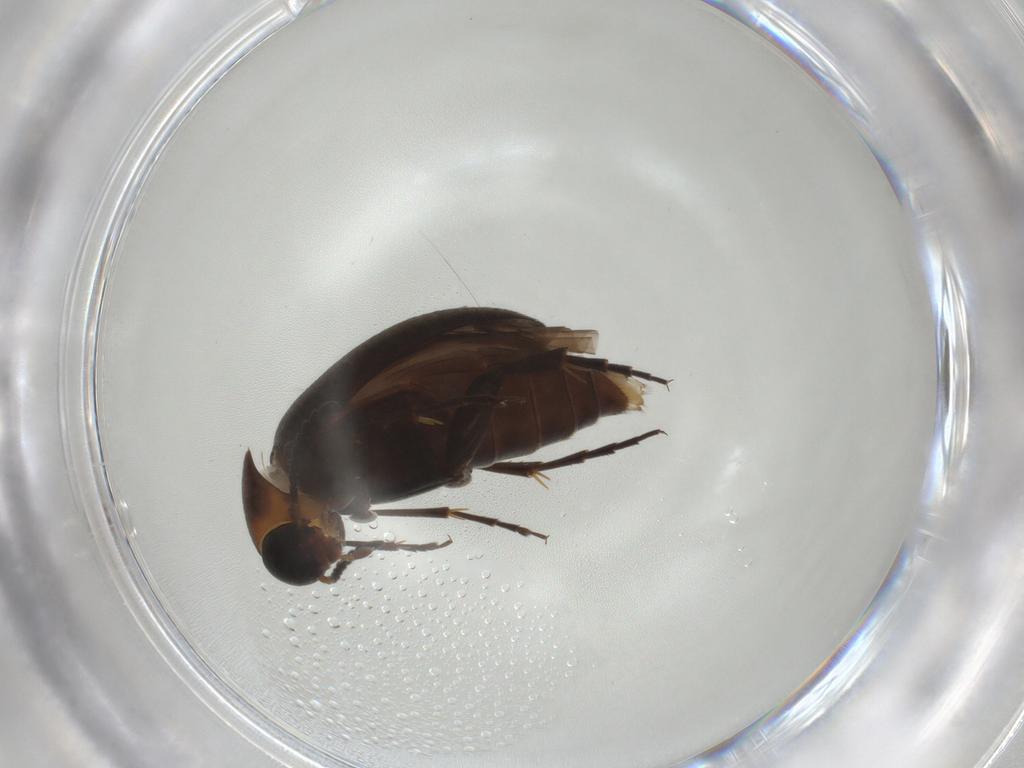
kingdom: Animalia
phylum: Arthropoda
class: Insecta
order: Coleoptera
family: Scraptiidae
